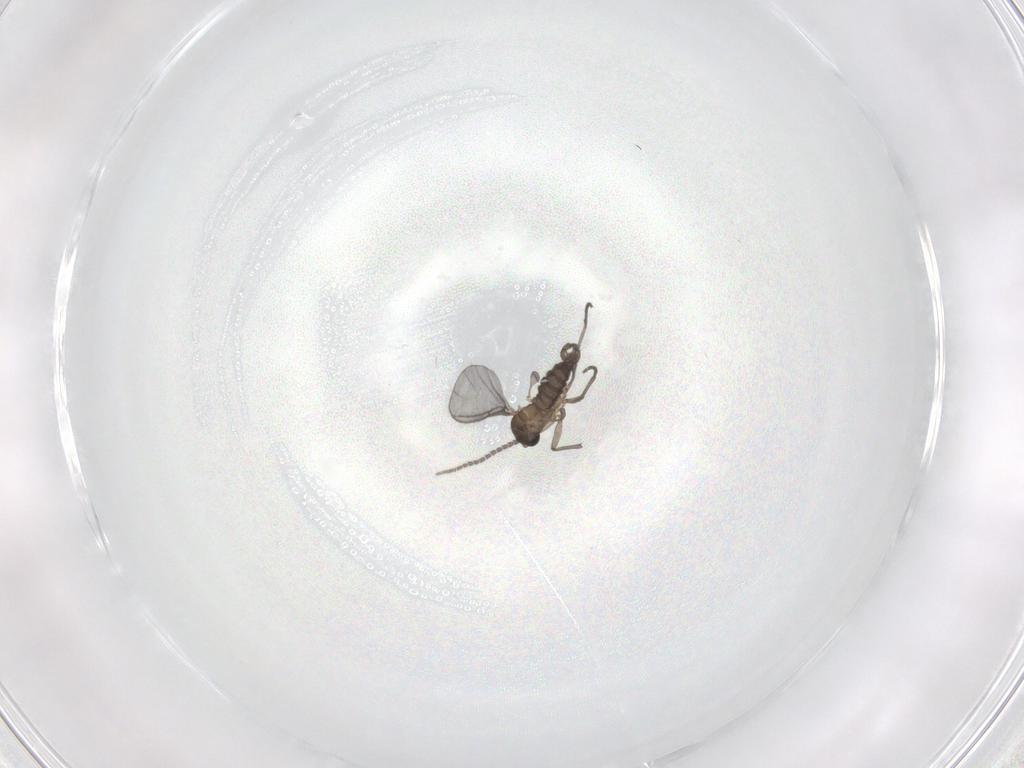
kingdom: Animalia
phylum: Arthropoda
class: Insecta
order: Diptera
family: Sciaridae
